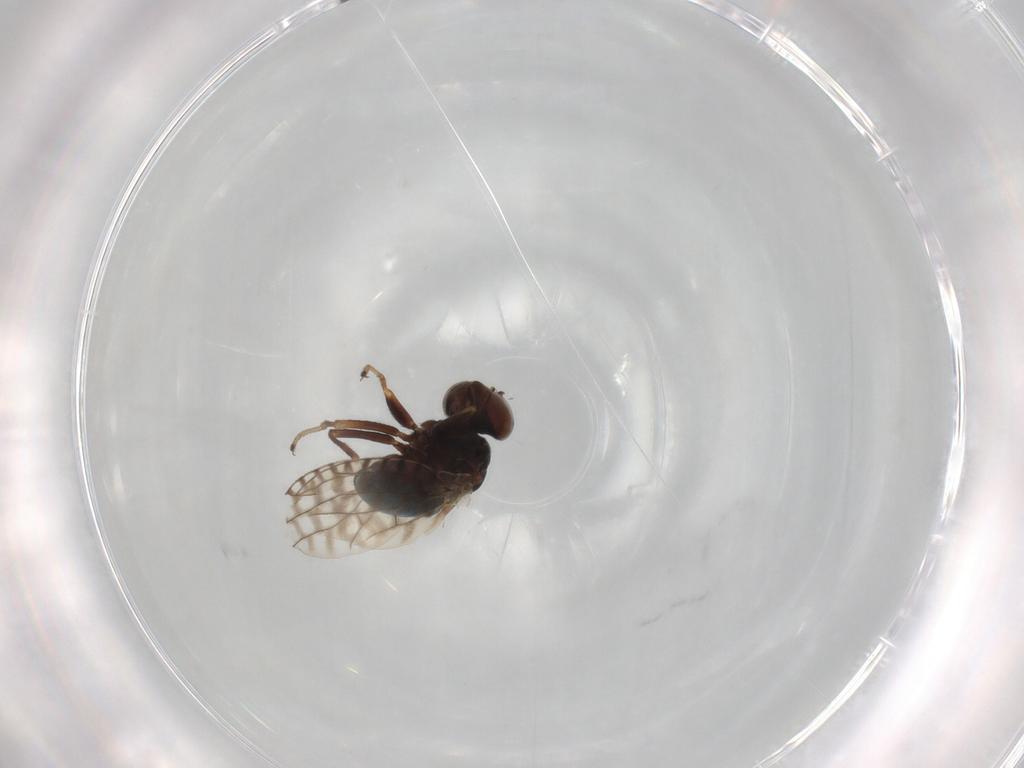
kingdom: Animalia
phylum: Arthropoda
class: Insecta
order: Diptera
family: Ephydridae
